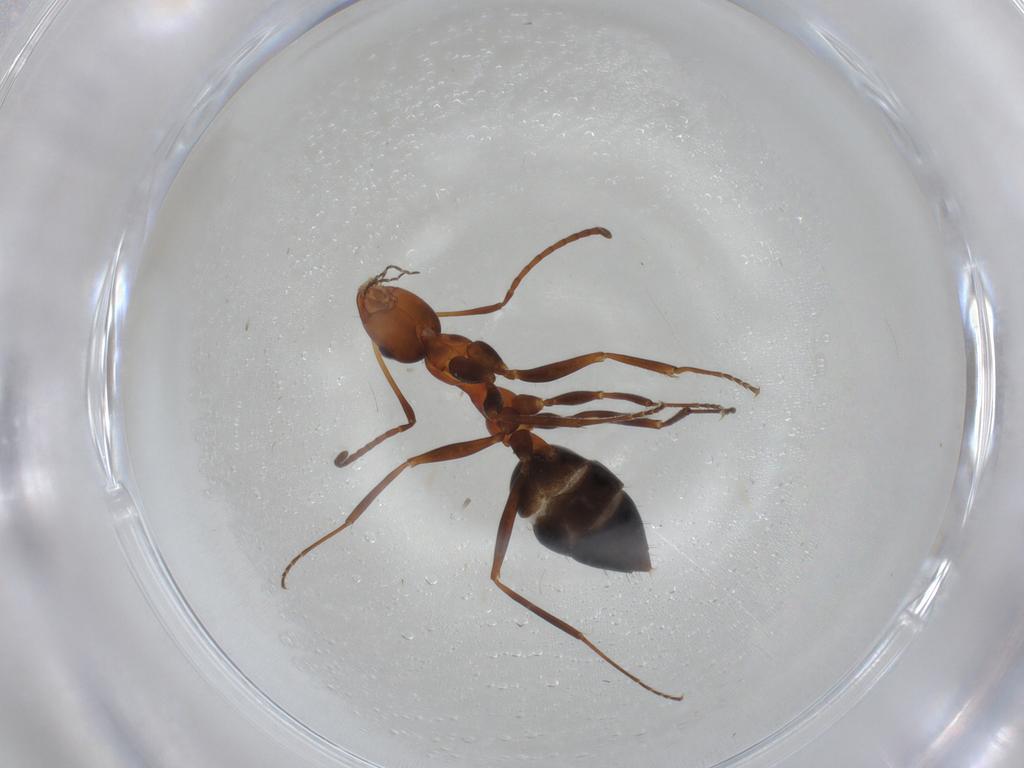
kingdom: Animalia
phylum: Arthropoda
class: Insecta
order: Hymenoptera
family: Formicidae
